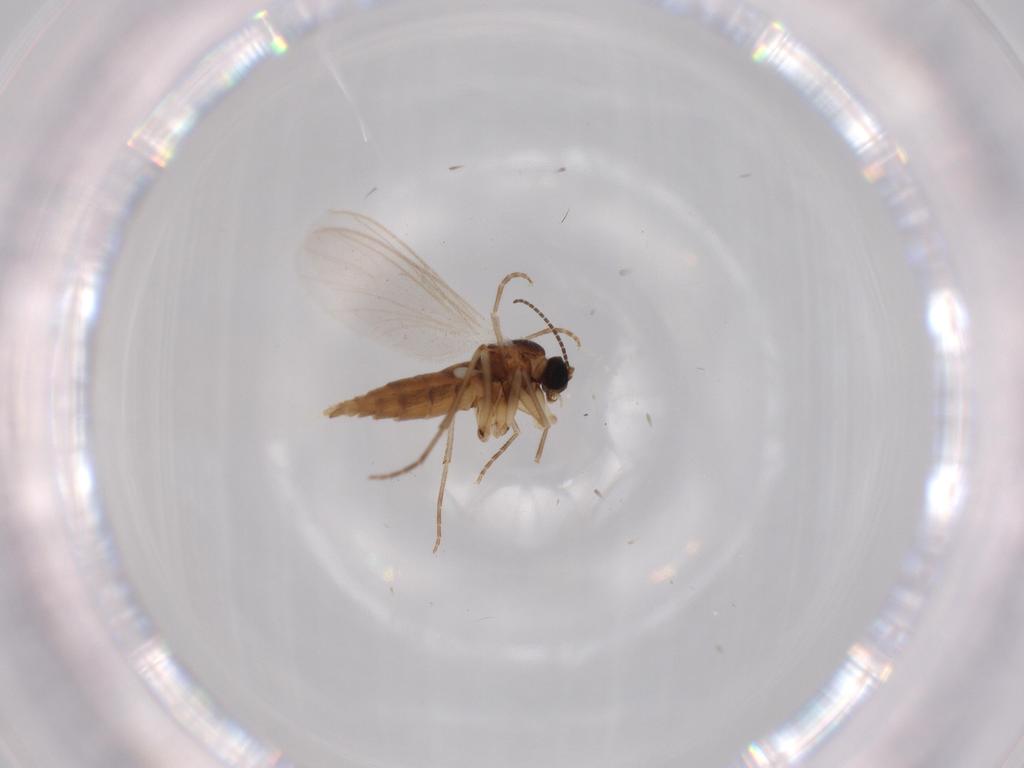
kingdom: Animalia
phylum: Arthropoda
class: Insecta
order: Diptera
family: Sciaridae
